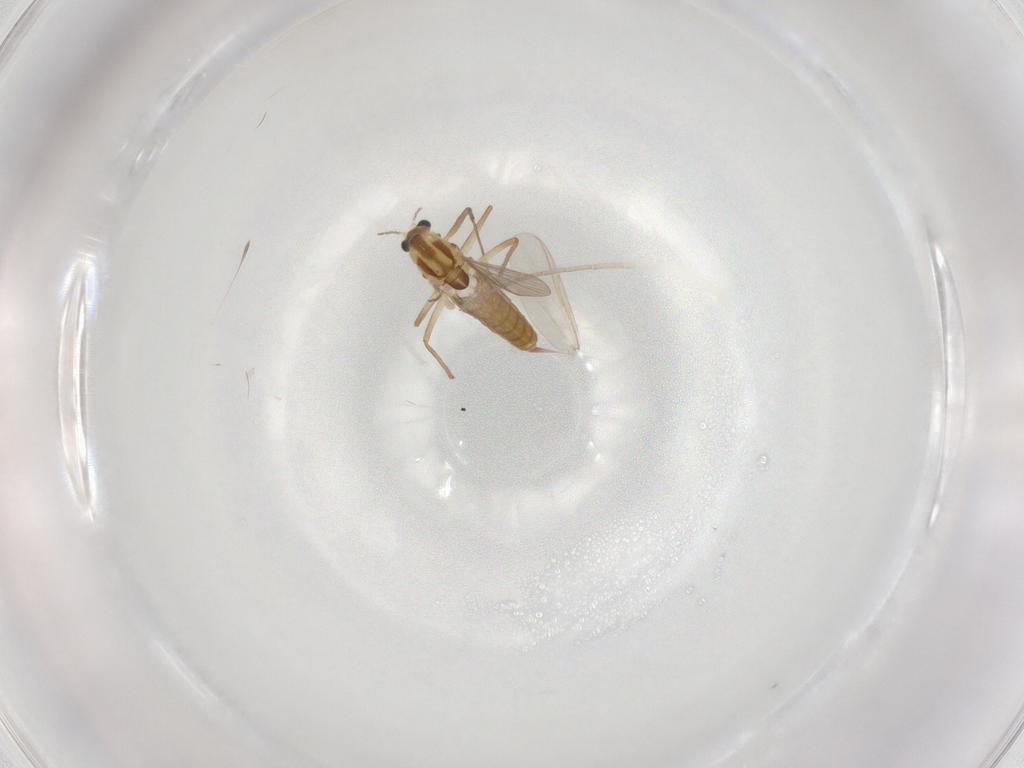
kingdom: Animalia
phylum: Arthropoda
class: Insecta
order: Diptera
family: Chironomidae
